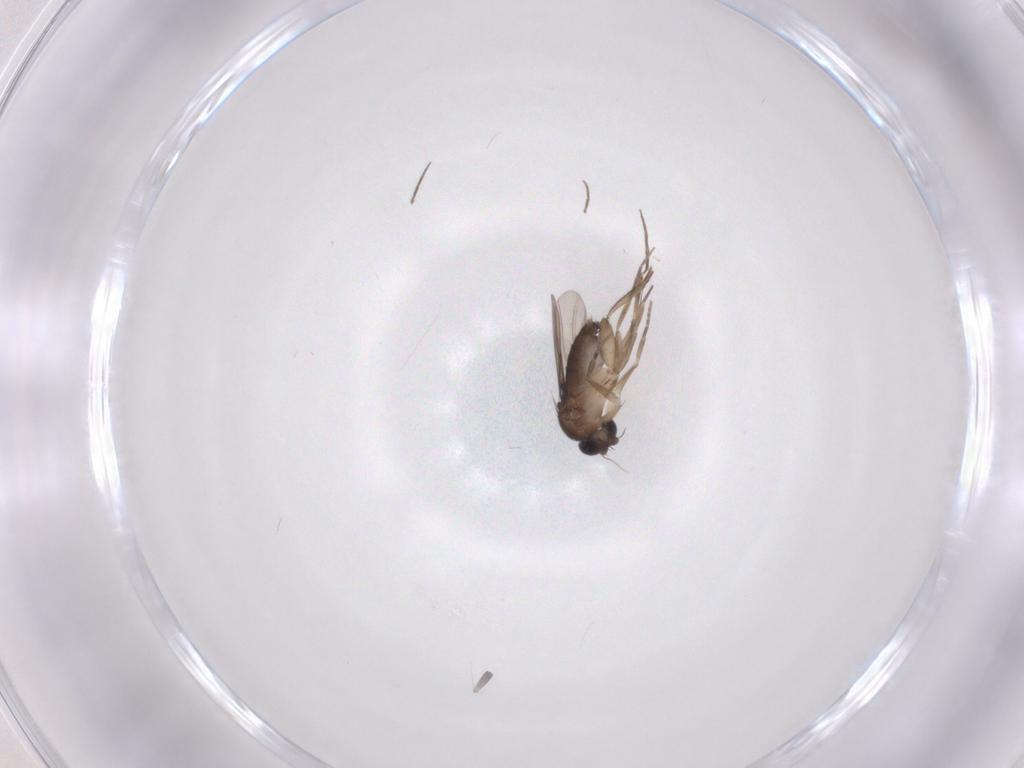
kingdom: Animalia
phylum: Arthropoda
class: Insecta
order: Diptera
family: Phoridae
